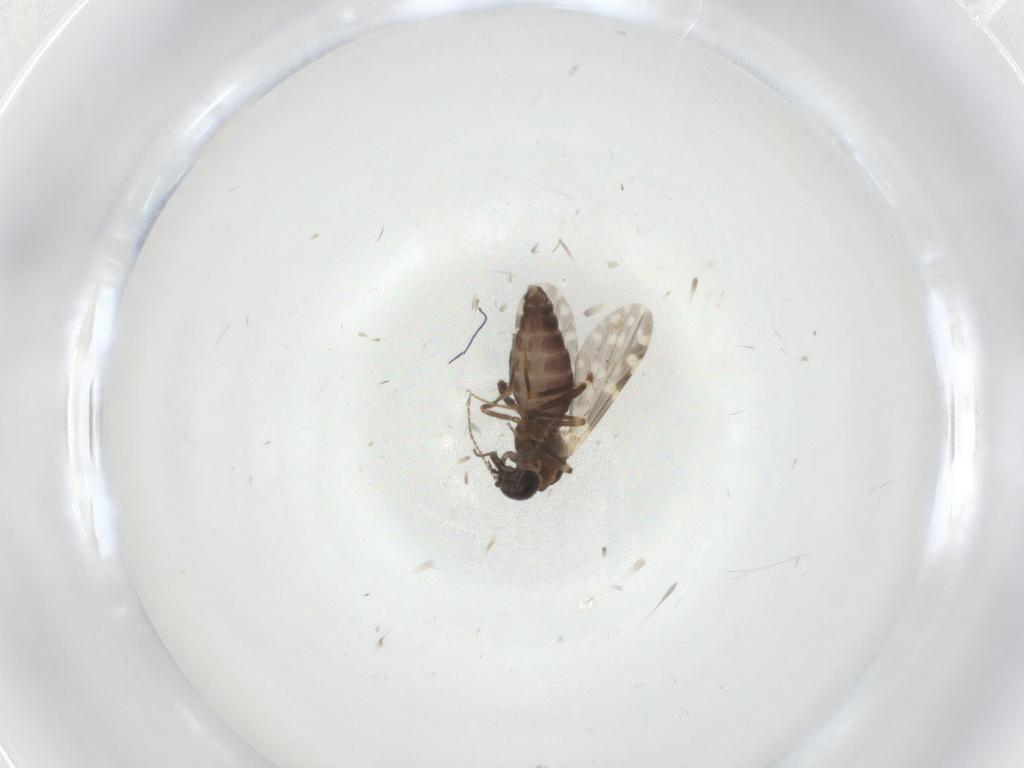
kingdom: Animalia
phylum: Arthropoda
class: Insecta
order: Diptera
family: Ceratopogonidae
